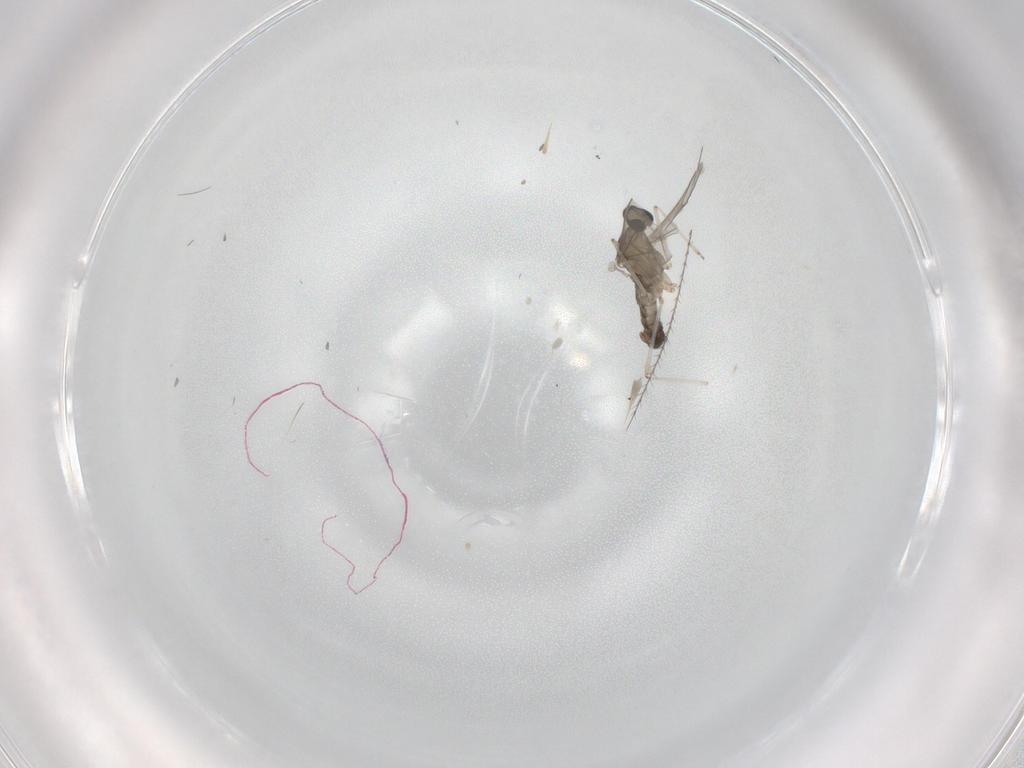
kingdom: Animalia
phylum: Arthropoda
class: Insecta
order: Diptera
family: Cecidomyiidae
